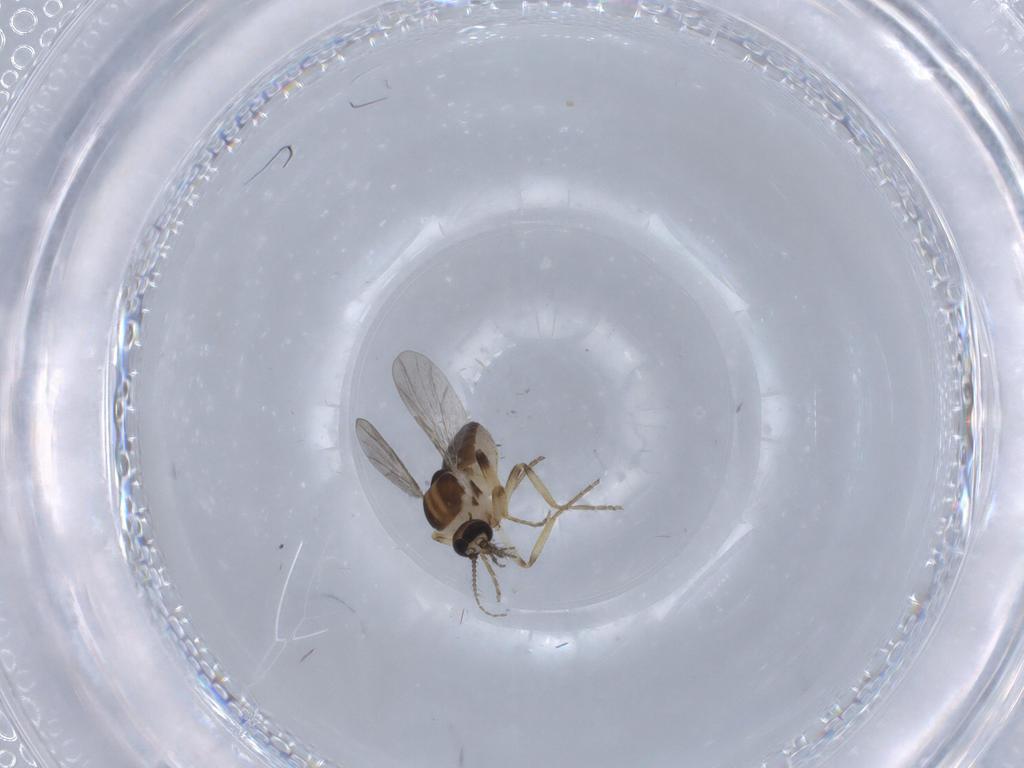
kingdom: Animalia
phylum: Arthropoda
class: Insecta
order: Diptera
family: Ceratopogonidae
